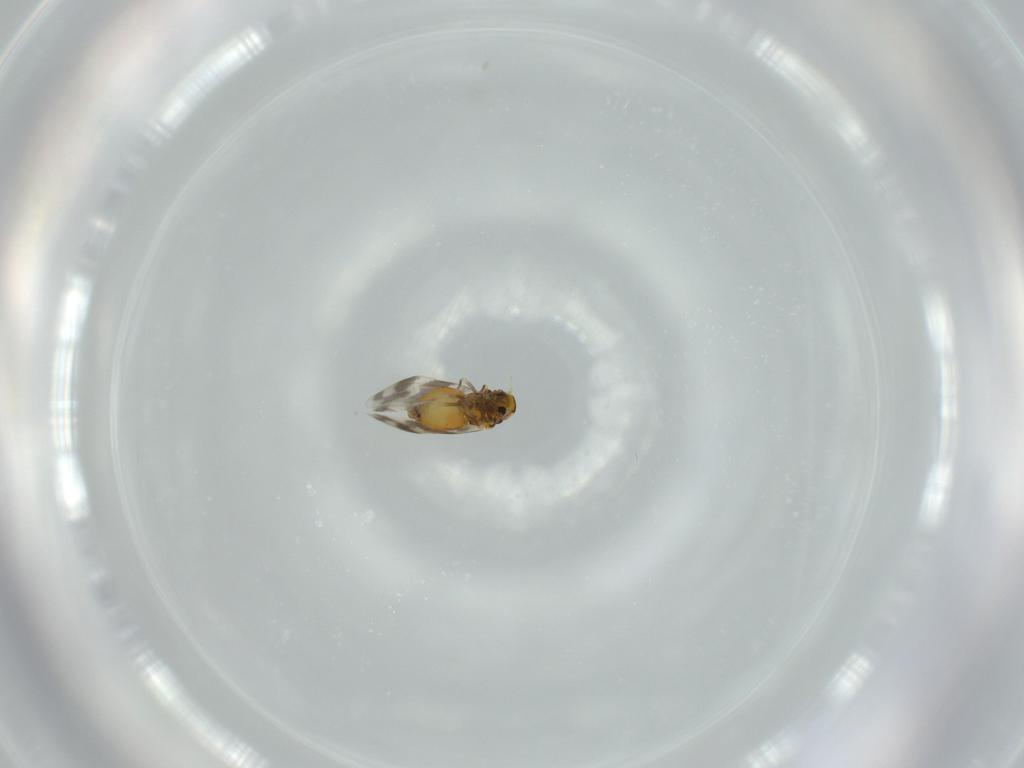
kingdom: Animalia
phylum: Arthropoda
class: Insecta
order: Hemiptera
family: Aleyrodidae
